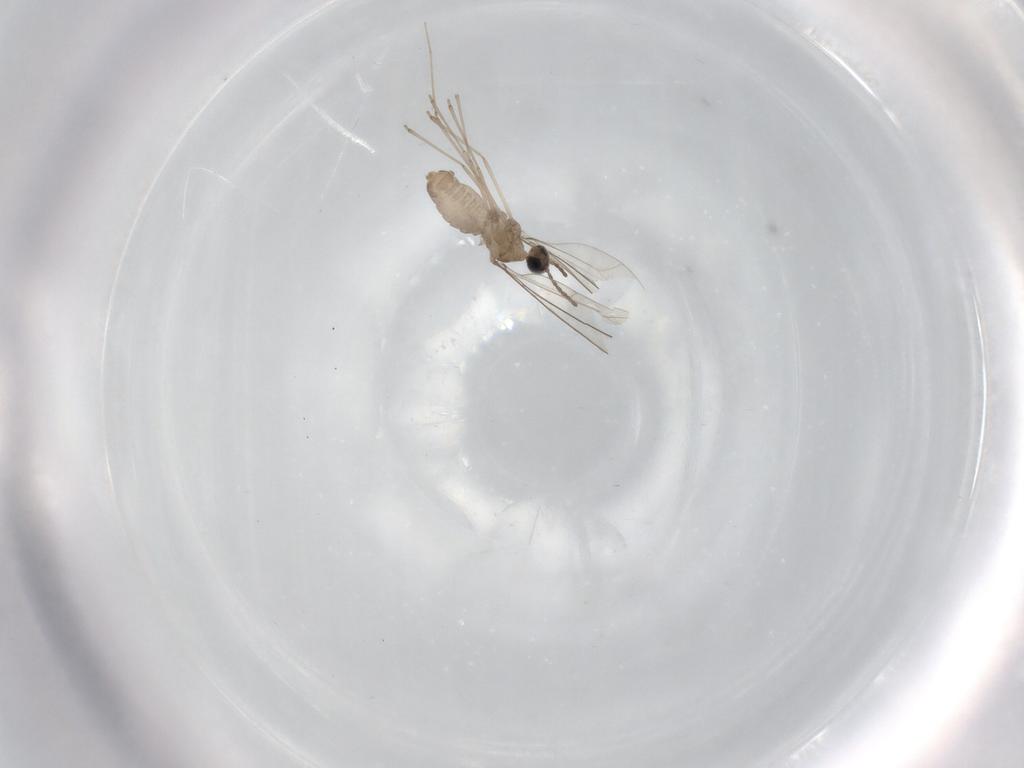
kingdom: Animalia
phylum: Arthropoda
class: Insecta
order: Diptera
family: Phoridae
